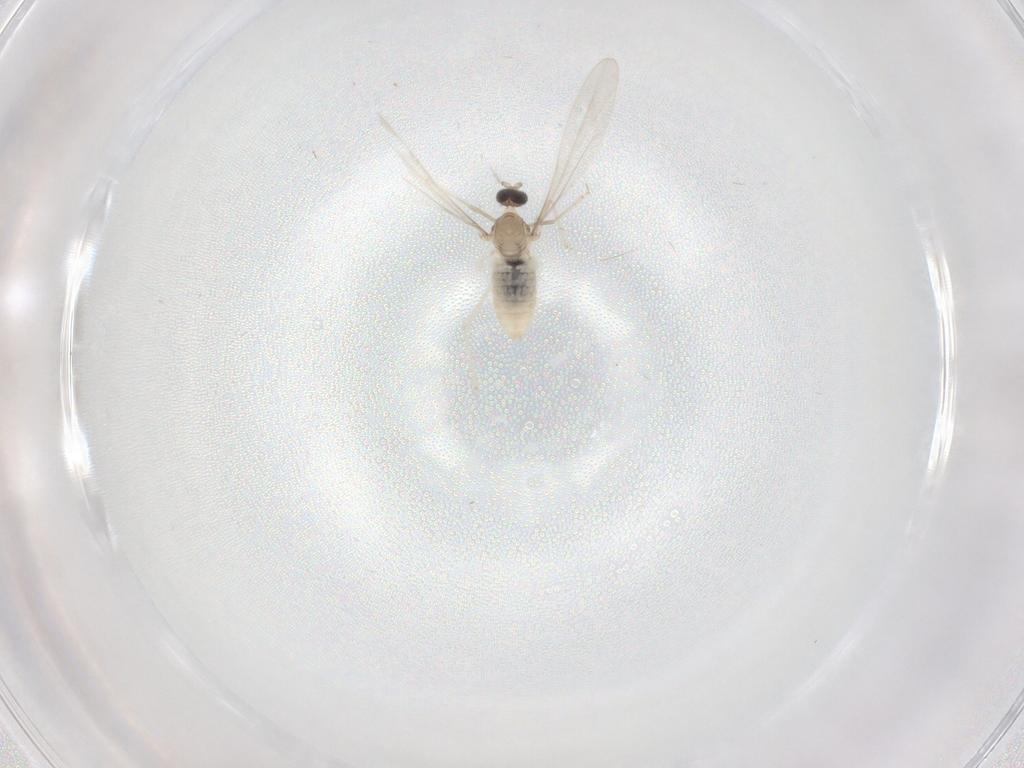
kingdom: Animalia
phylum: Arthropoda
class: Insecta
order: Diptera
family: Cecidomyiidae
